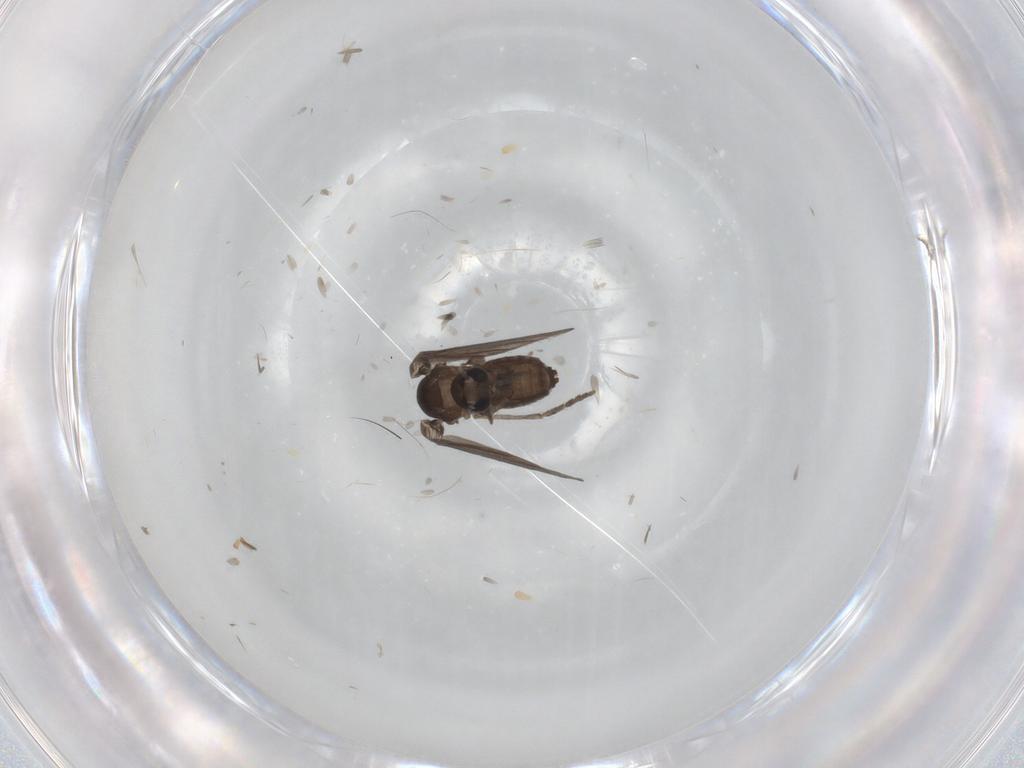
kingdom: Animalia
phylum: Arthropoda
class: Insecta
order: Diptera
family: Psychodidae
